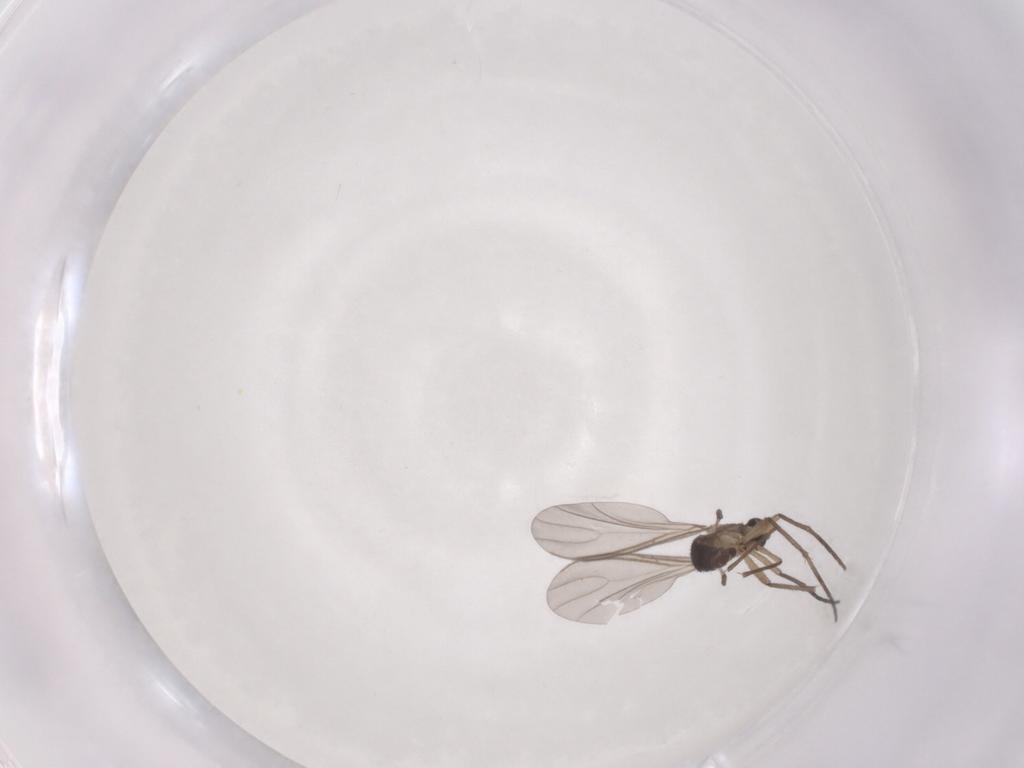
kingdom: Animalia
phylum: Arthropoda
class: Insecta
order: Diptera
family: Sciaridae
